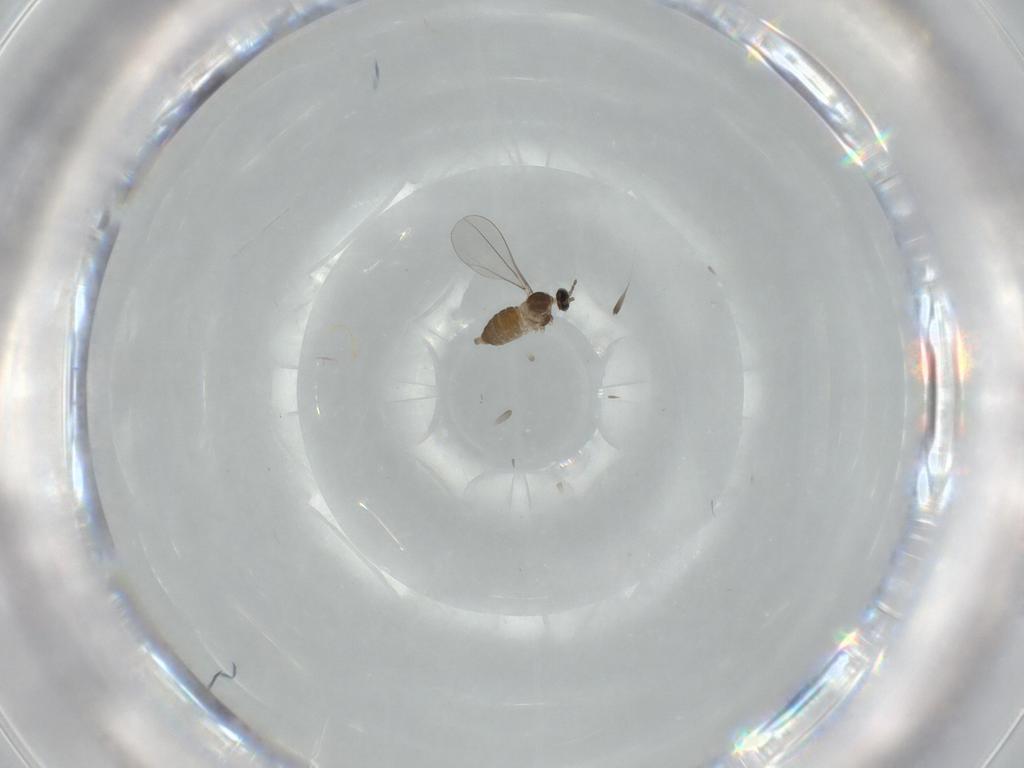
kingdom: Animalia
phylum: Arthropoda
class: Insecta
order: Diptera
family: Cecidomyiidae
